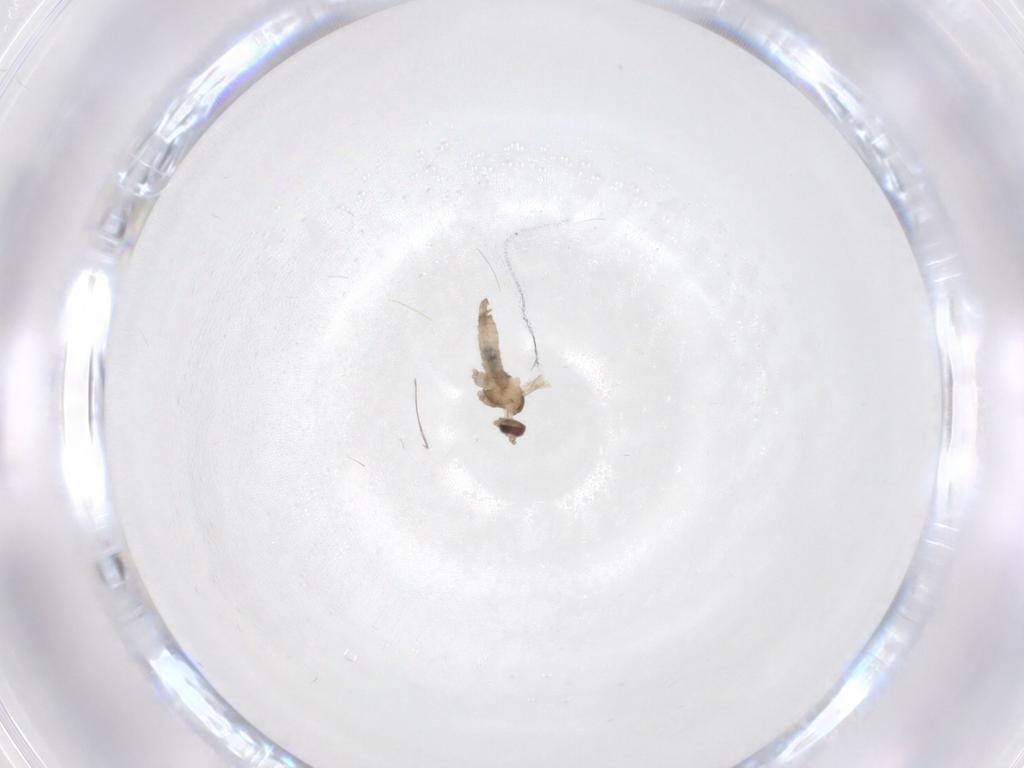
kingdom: Animalia
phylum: Arthropoda
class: Insecta
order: Diptera
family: Cecidomyiidae
